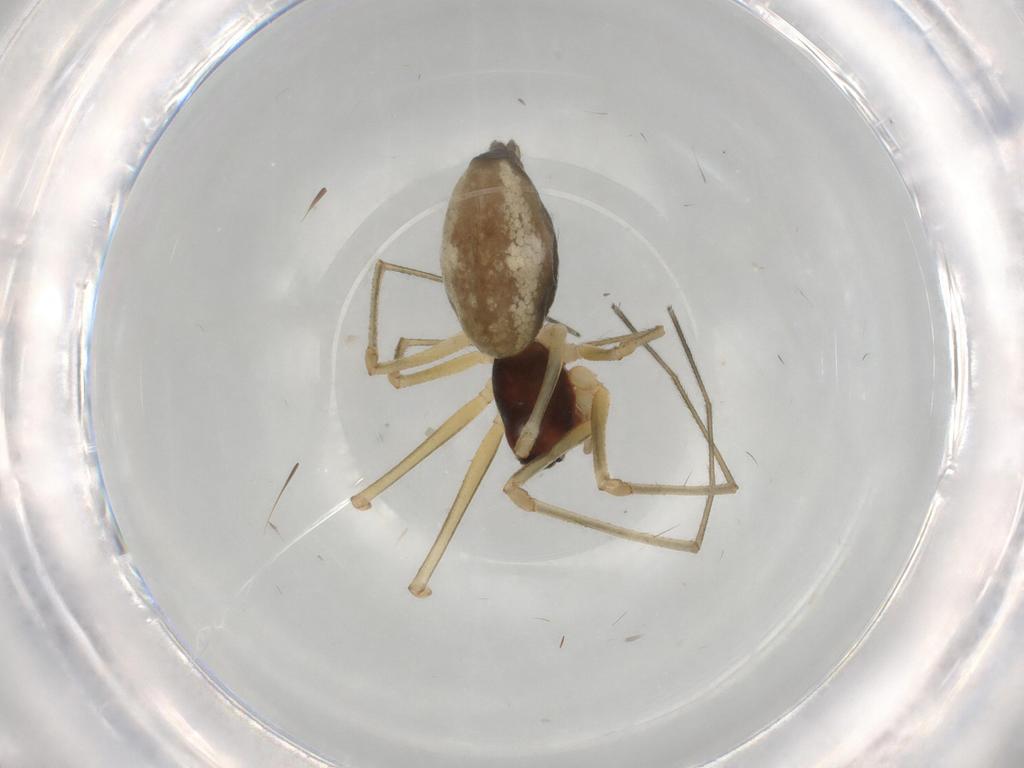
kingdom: Animalia
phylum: Arthropoda
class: Arachnida
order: Araneae
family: Linyphiidae
